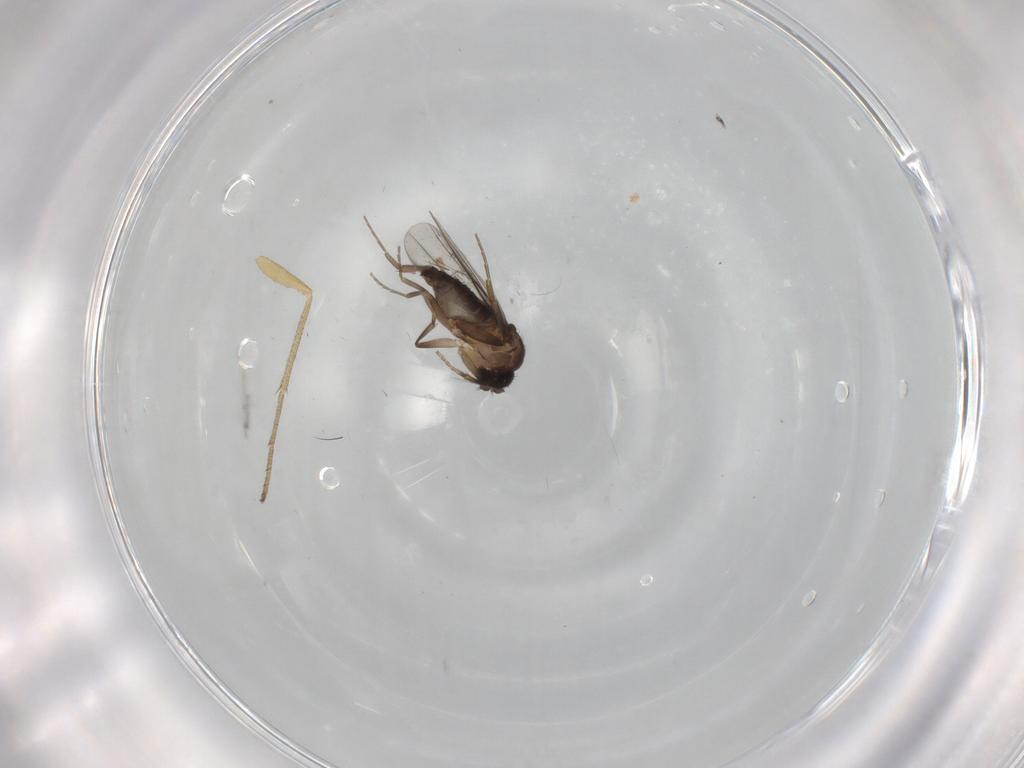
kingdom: Animalia
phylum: Arthropoda
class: Insecta
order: Diptera
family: Dolichopodidae
